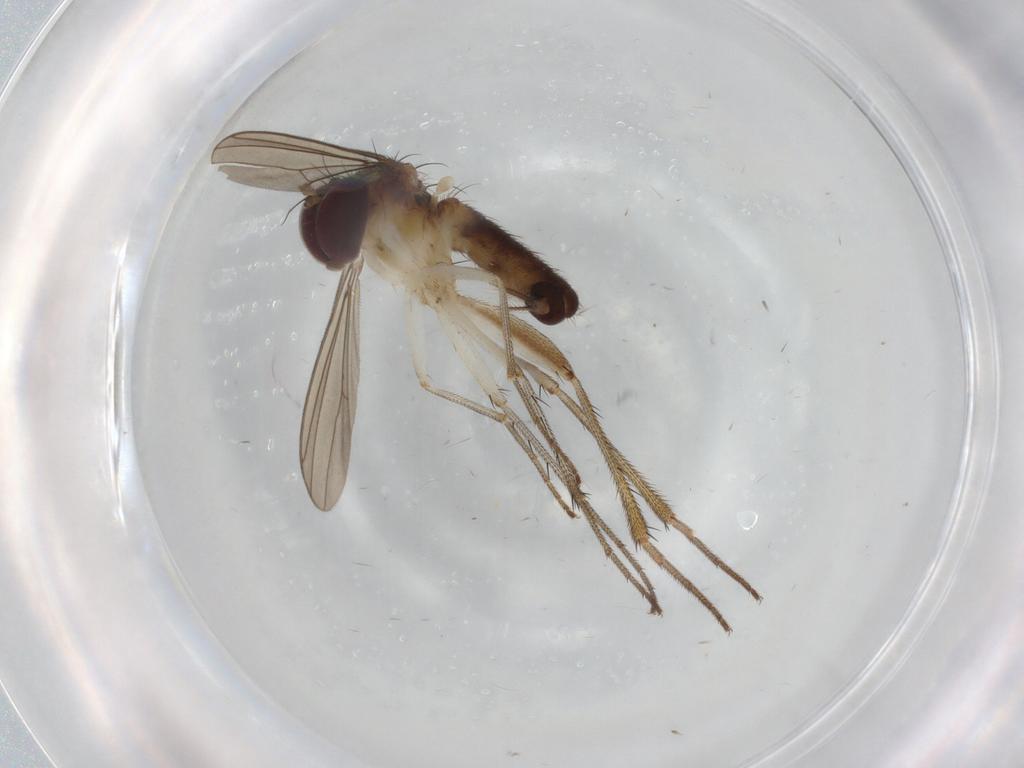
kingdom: Animalia
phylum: Arthropoda
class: Insecta
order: Diptera
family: Cecidomyiidae
